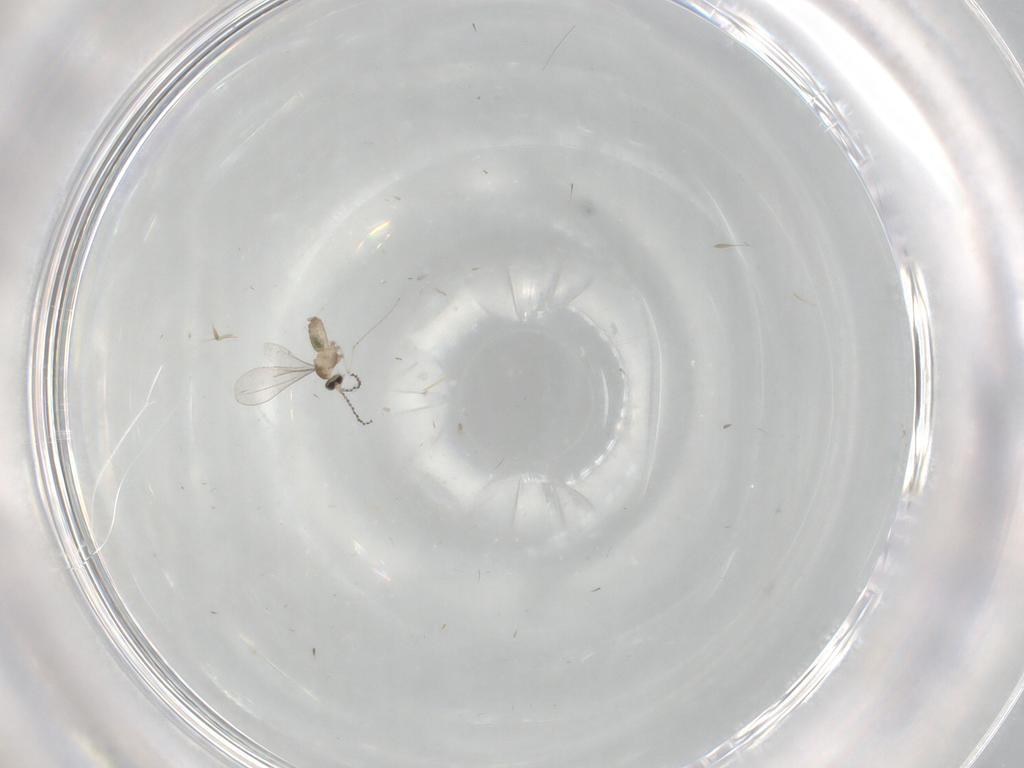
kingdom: Animalia
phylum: Arthropoda
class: Insecta
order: Diptera
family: Cecidomyiidae
